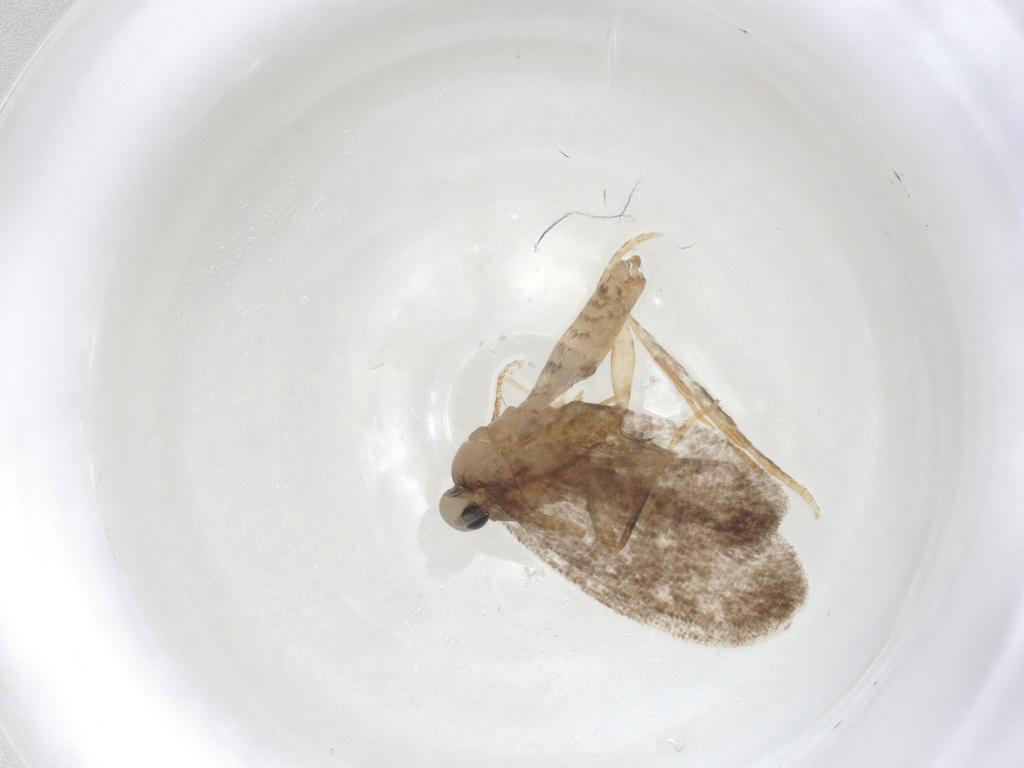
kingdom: Animalia
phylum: Arthropoda
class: Insecta
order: Lepidoptera
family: Psychidae
